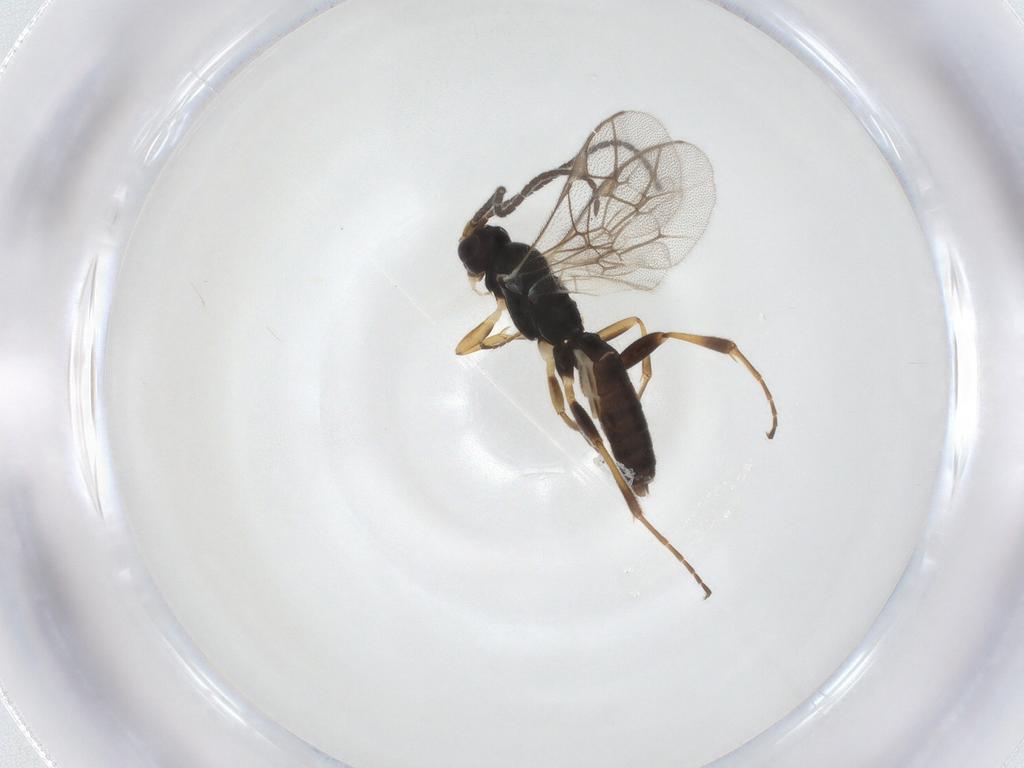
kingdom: Animalia
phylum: Arthropoda
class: Insecta
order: Hymenoptera
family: Ichneumonidae
